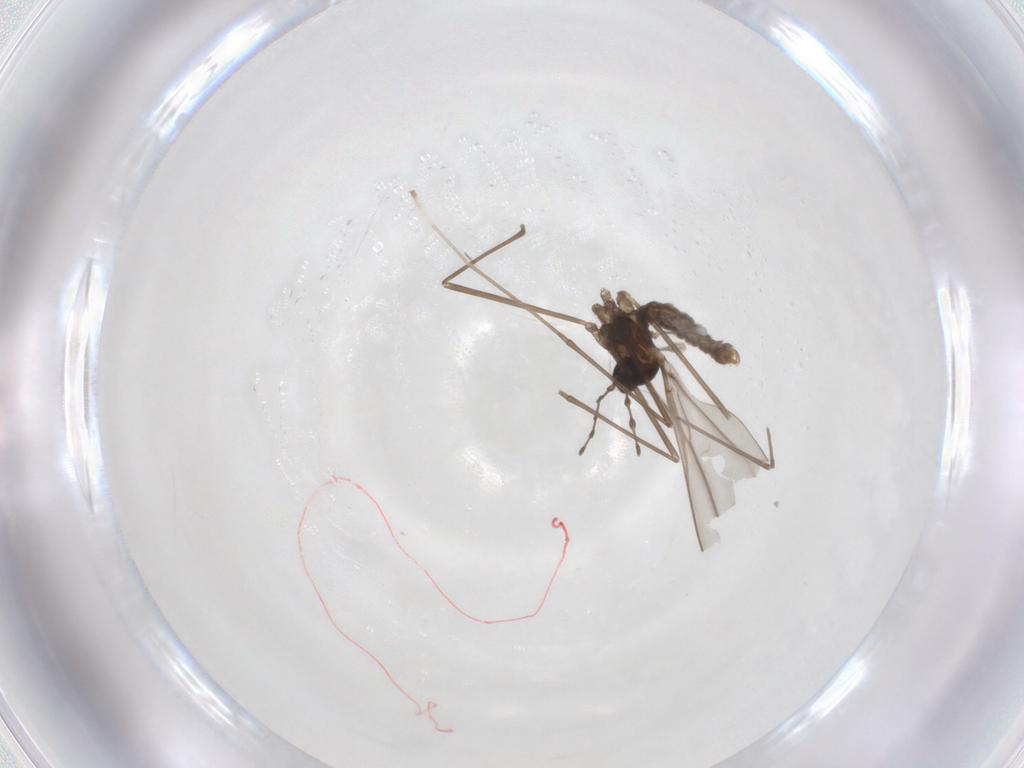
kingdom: Animalia
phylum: Arthropoda
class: Insecta
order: Diptera
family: Cecidomyiidae
